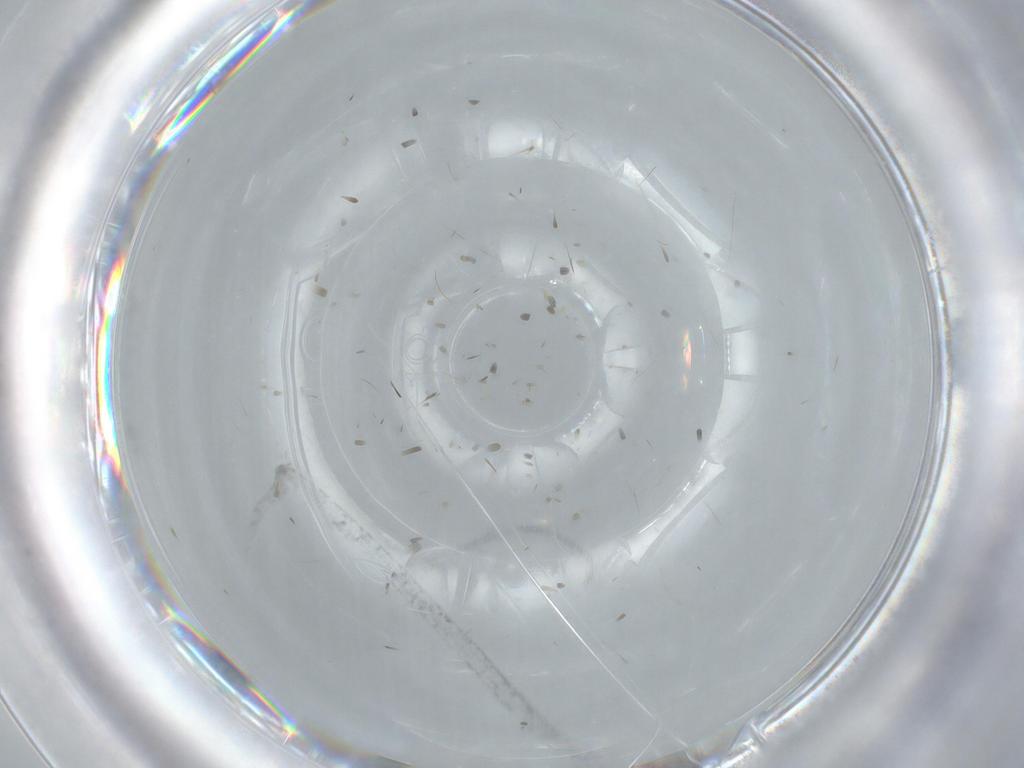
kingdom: Animalia
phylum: Arthropoda
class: Insecta
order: Diptera
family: Cecidomyiidae
